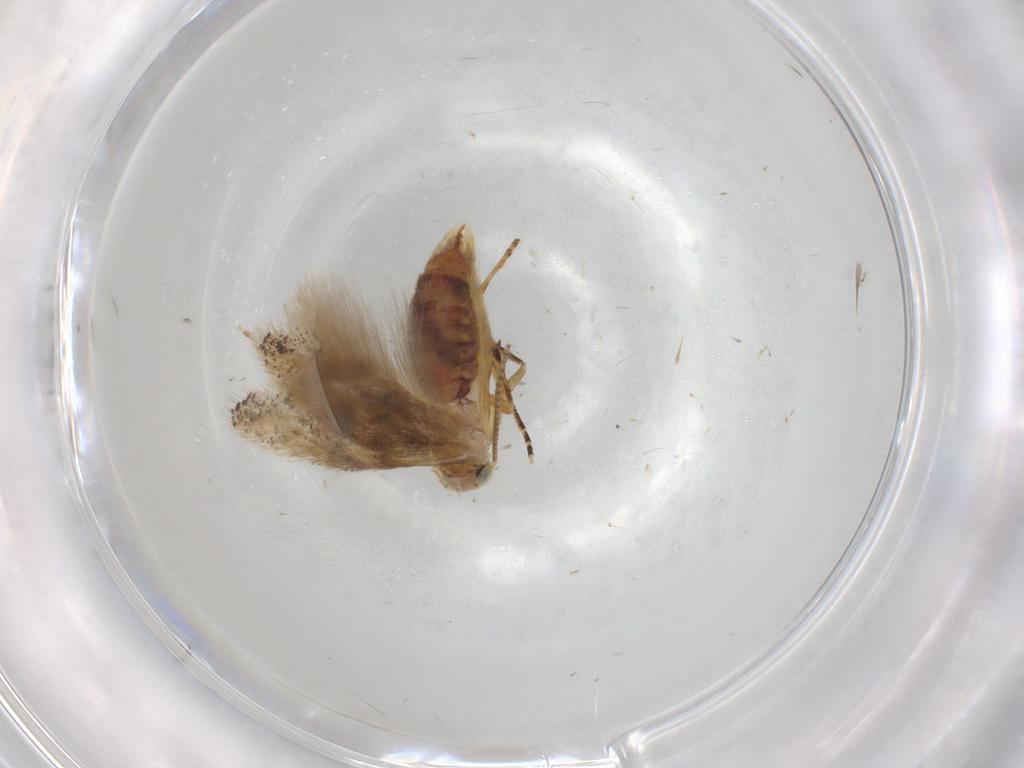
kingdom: Animalia
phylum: Arthropoda
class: Insecta
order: Lepidoptera
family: Bucculatricidae
